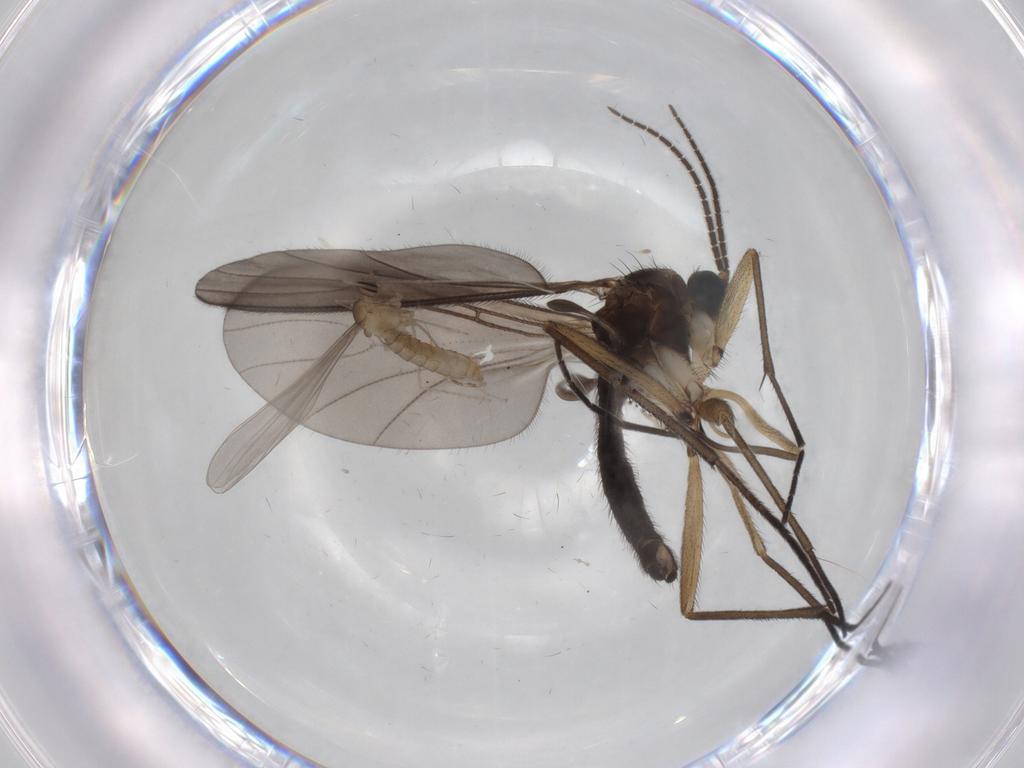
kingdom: Animalia
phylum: Arthropoda
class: Insecta
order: Diptera
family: Sciaridae
